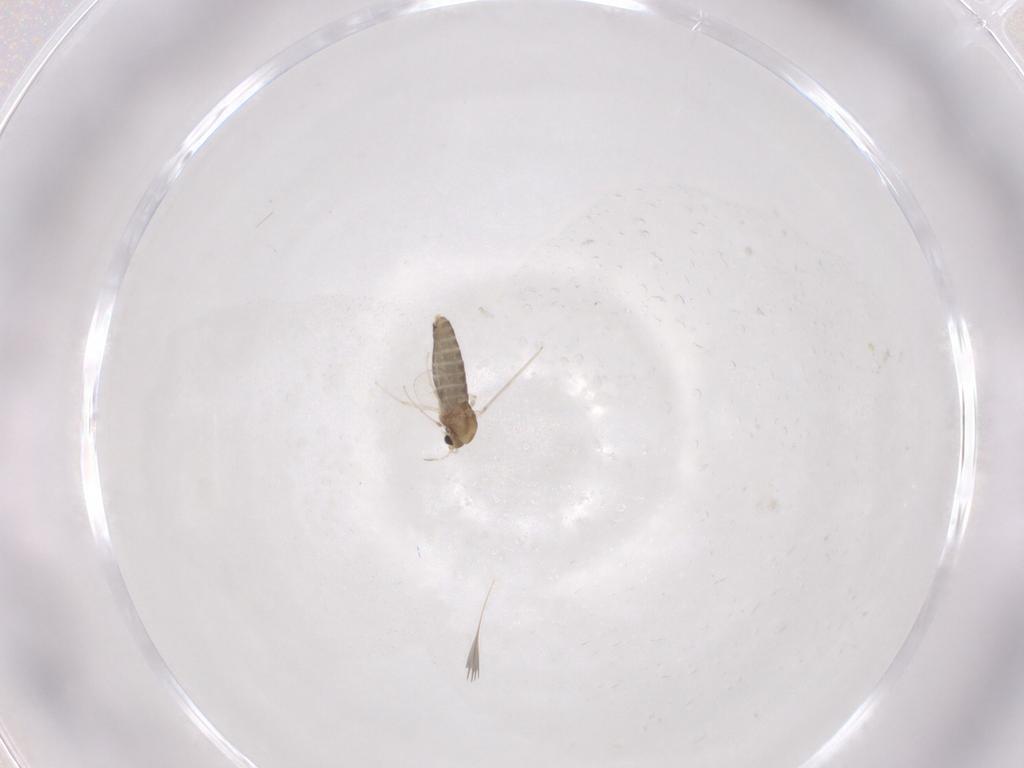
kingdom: Animalia
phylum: Arthropoda
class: Insecta
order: Diptera
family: Chironomidae
